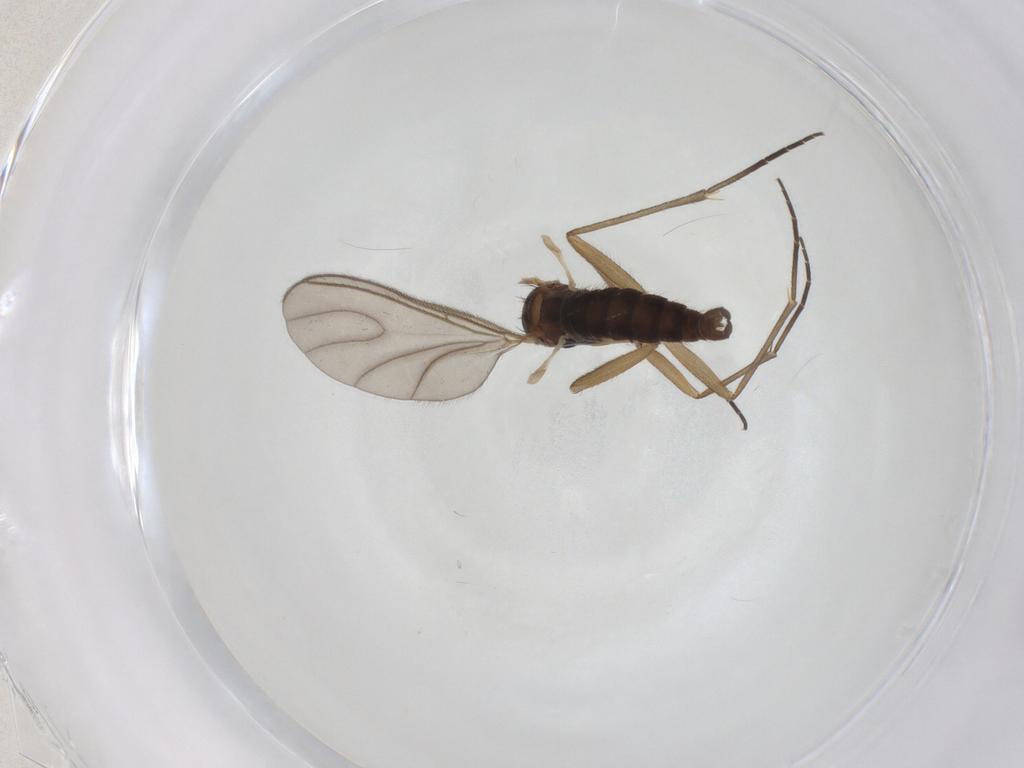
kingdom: Animalia
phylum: Arthropoda
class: Insecta
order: Diptera
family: Sciaridae
